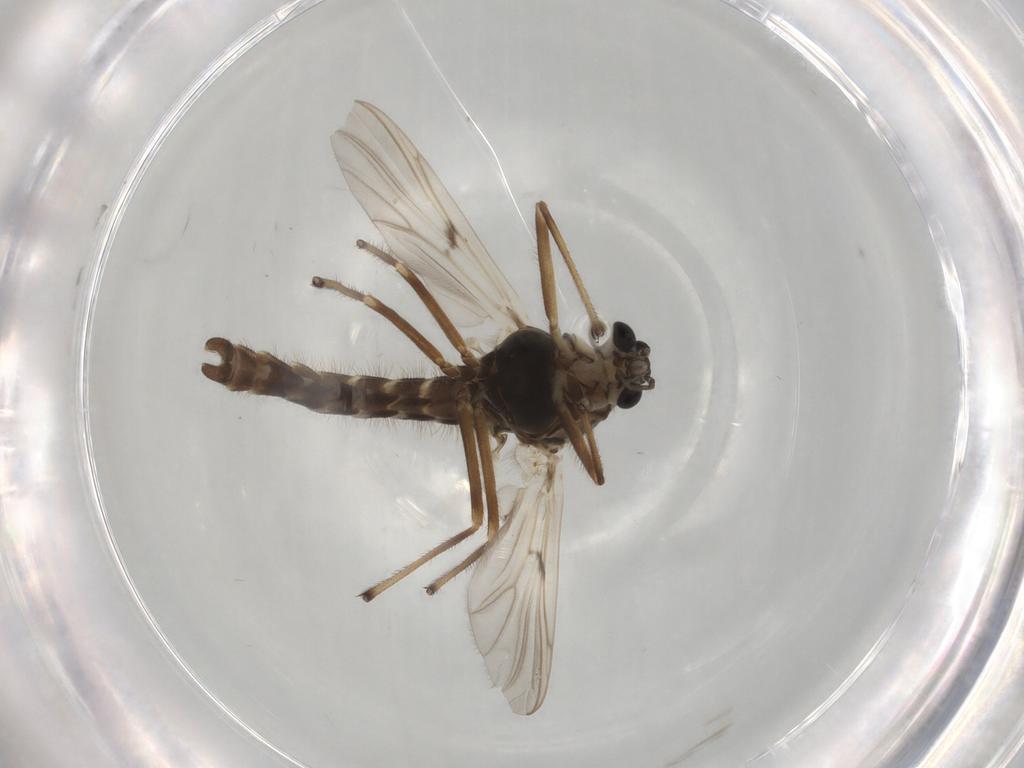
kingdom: Animalia
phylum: Arthropoda
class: Insecta
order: Diptera
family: Chironomidae
